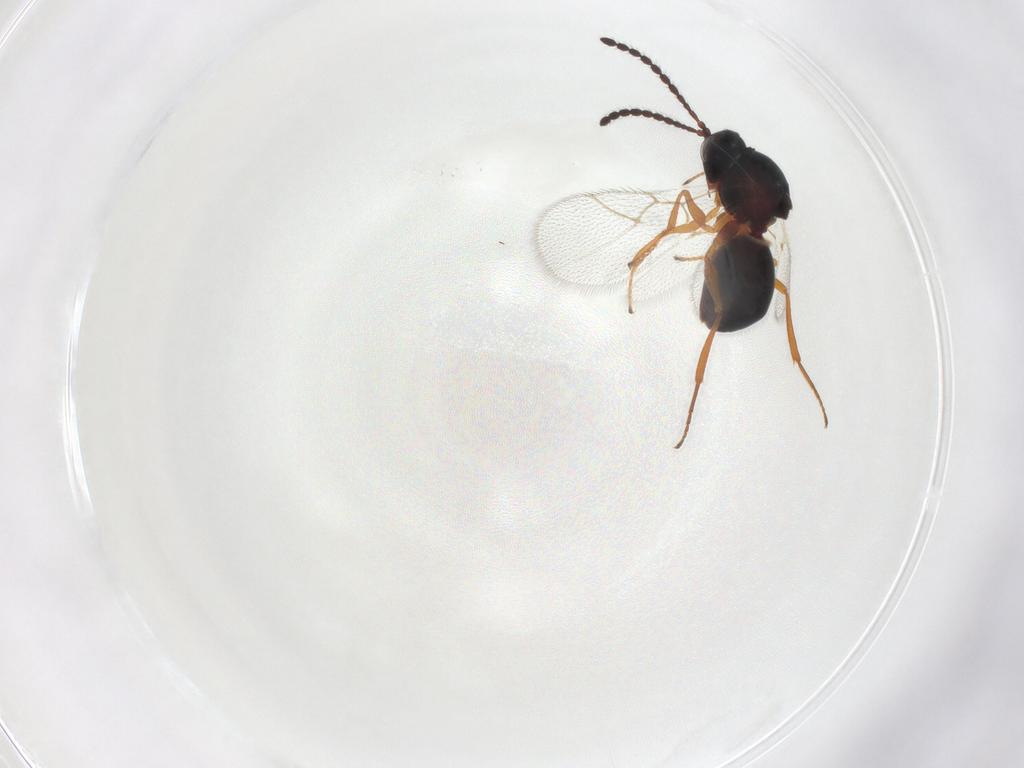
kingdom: Animalia
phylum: Arthropoda
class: Insecta
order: Hymenoptera
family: Figitidae
